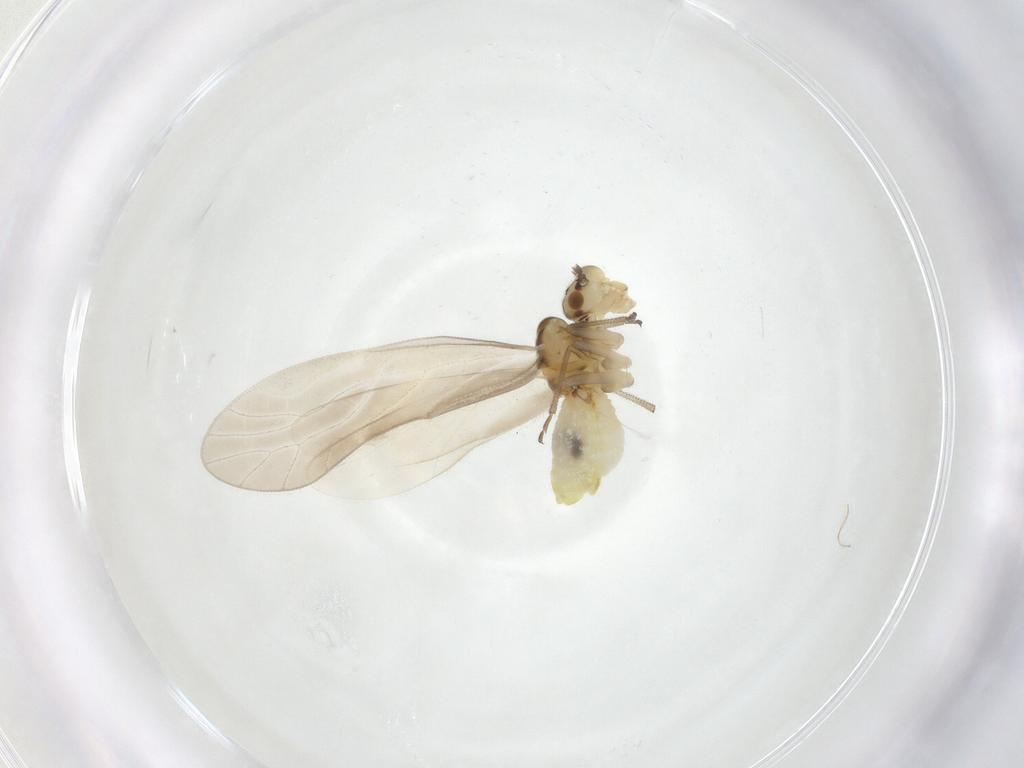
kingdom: Animalia
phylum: Arthropoda
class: Insecta
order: Psocodea
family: Caeciliusidae
